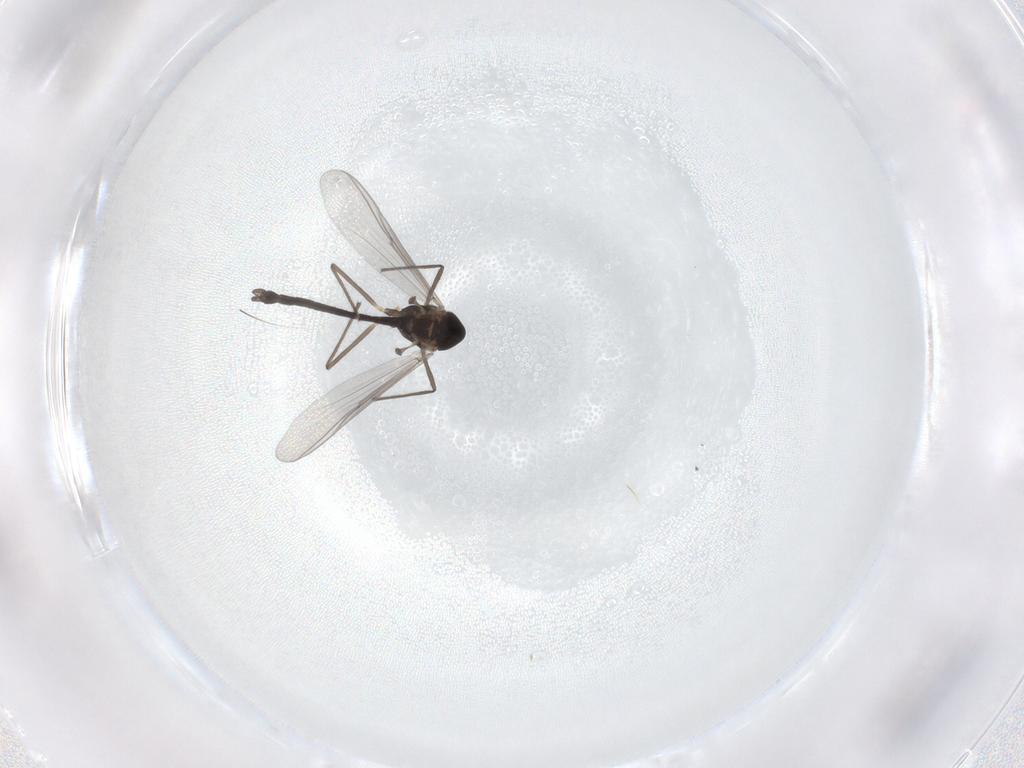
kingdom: Animalia
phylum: Arthropoda
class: Insecta
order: Diptera
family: Chironomidae
